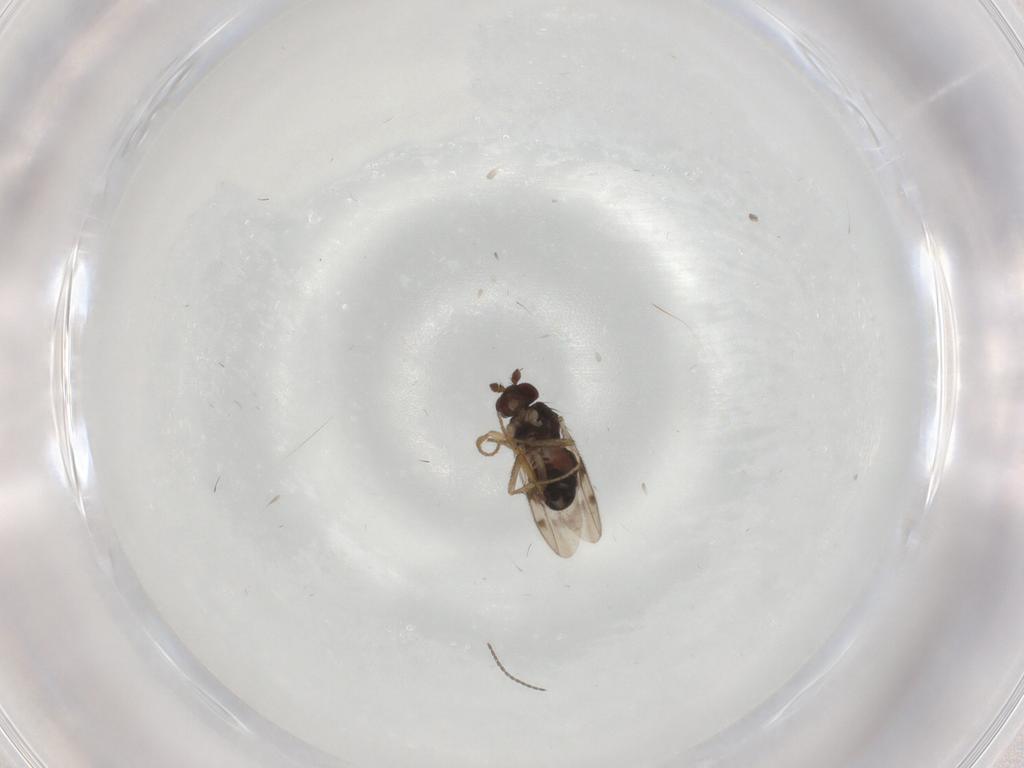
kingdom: Animalia
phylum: Arthropoda
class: Insecta
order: Diptera
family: Sphaeroceridae
